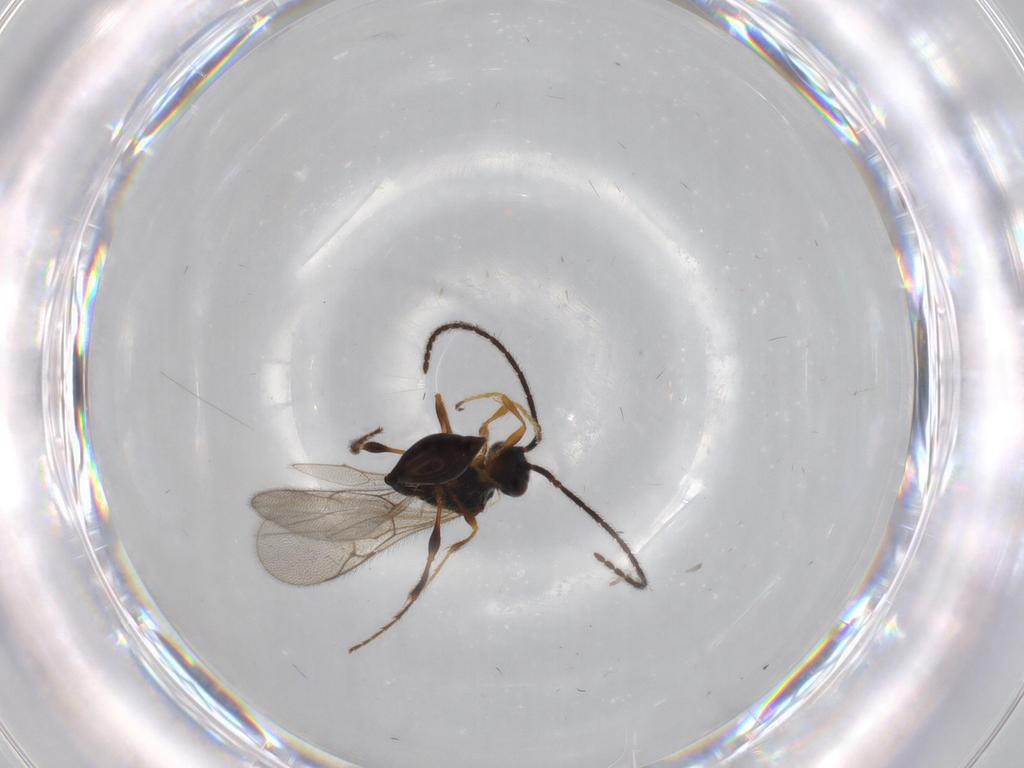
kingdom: Animalia
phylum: Arthropoda
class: Insecta
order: Hymenoptera
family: Diapriidae
